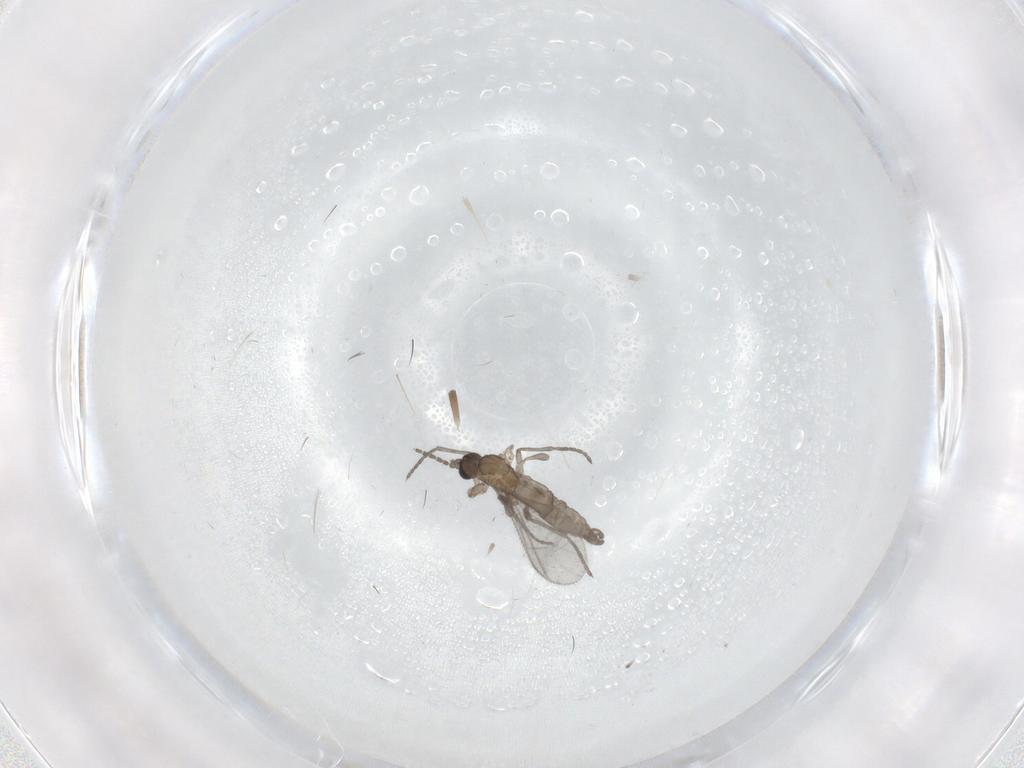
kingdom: Animalia
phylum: Arthropoda
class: Insecta
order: Diptera
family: Sciaridae
